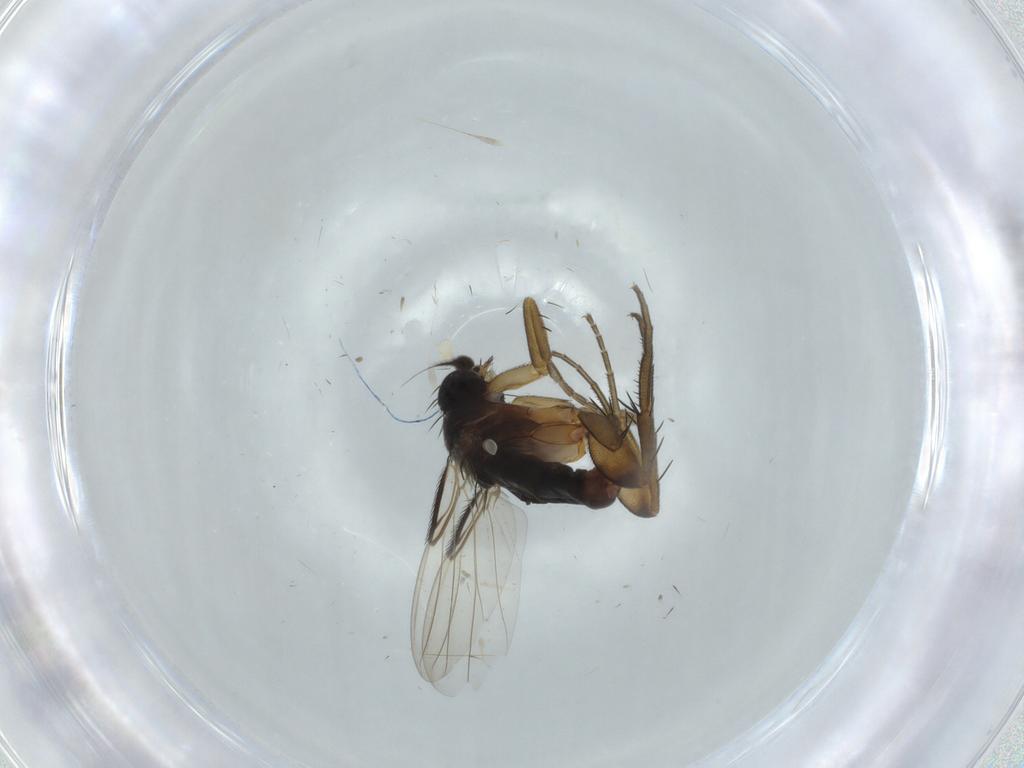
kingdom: Animalia
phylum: Arthropoda
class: Insecta
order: Diptera
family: Phoridae
